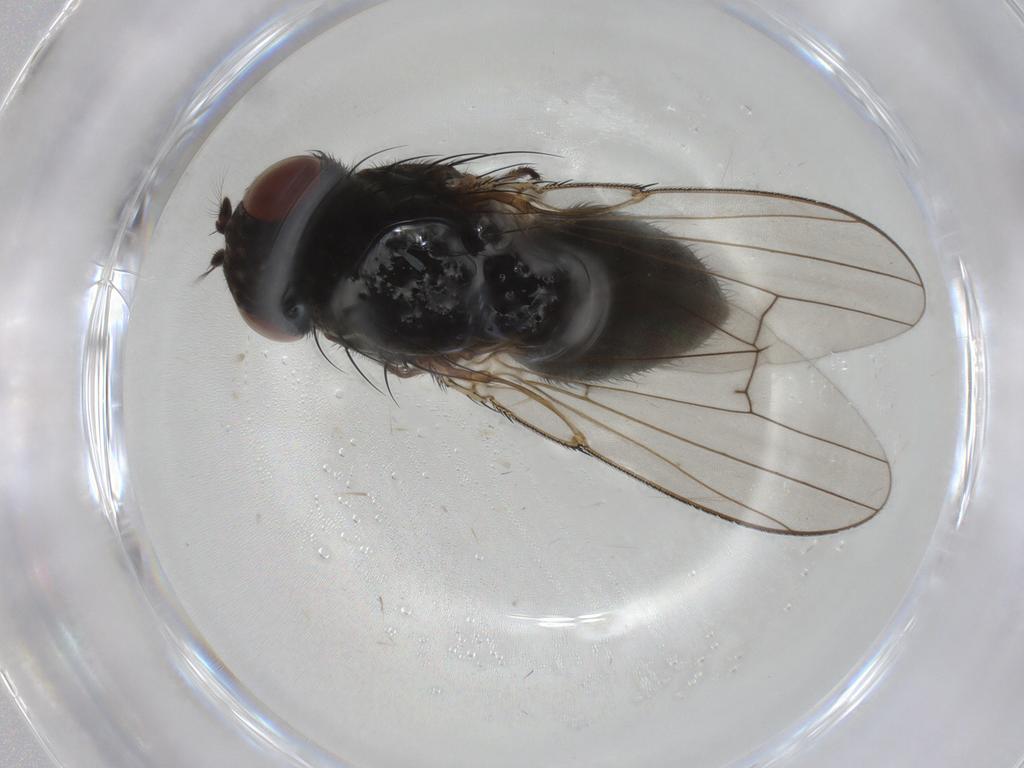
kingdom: Animalia
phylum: Arthropoda
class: Insecta
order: Diptera
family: Ephydridae
